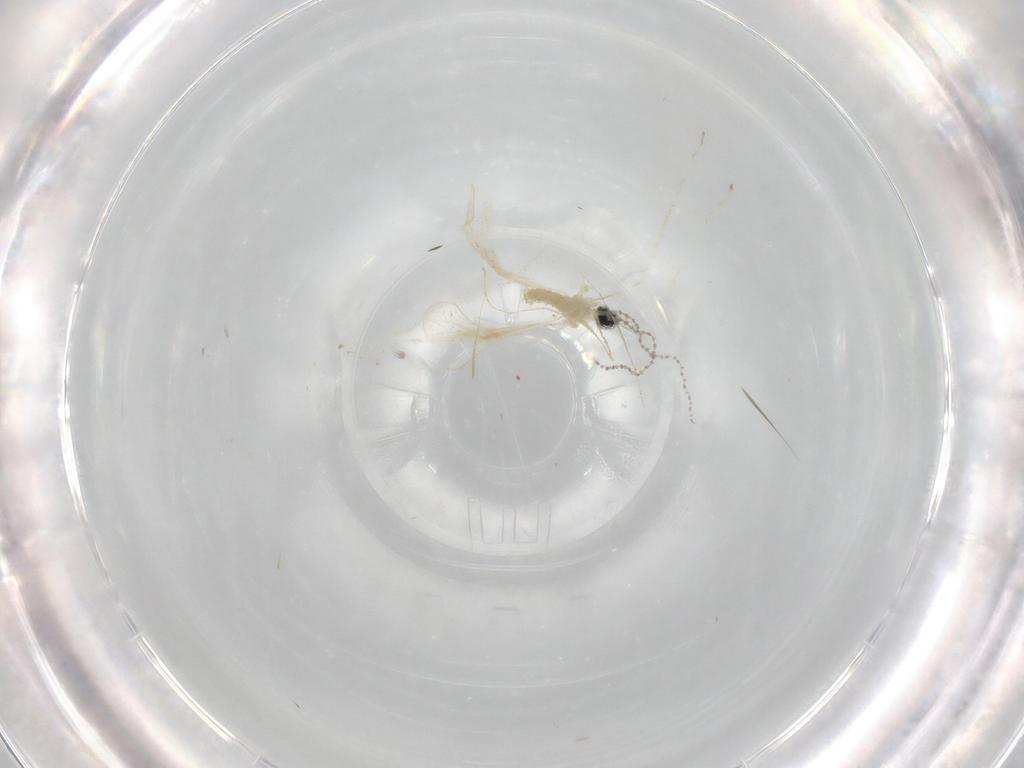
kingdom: Animalia
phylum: Arthropoda
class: Insecta
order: Diptera
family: Cecidomyiidae
